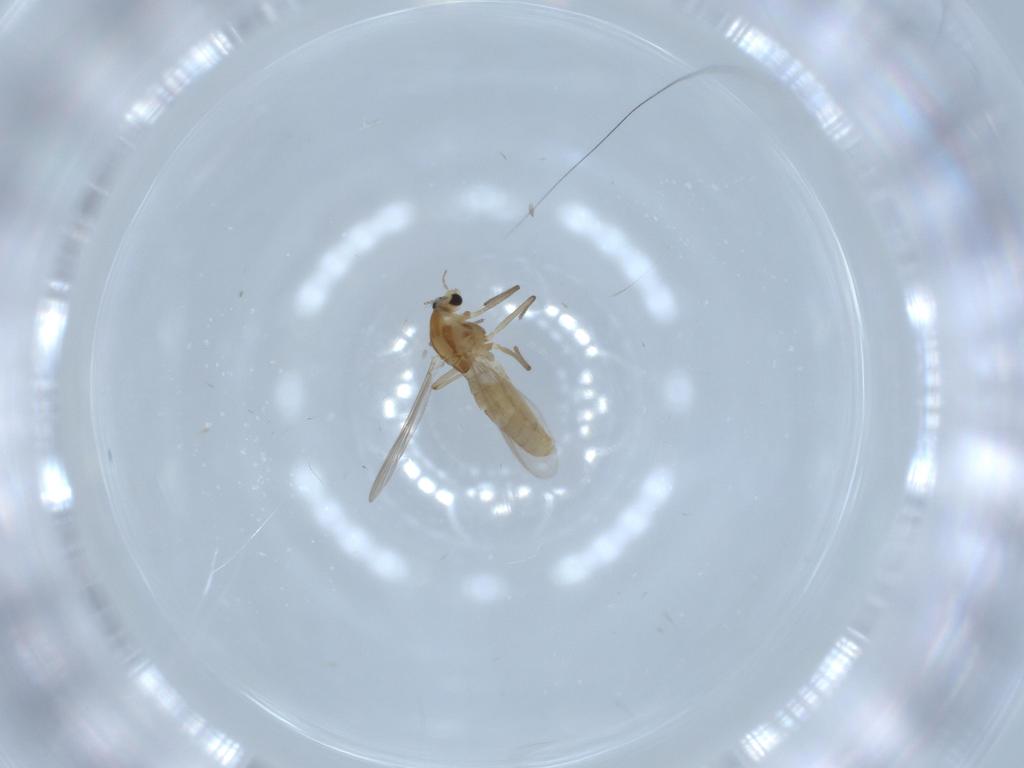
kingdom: Animalia
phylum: Arthropoda
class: Insecta
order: Diptera
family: Chironomidae
